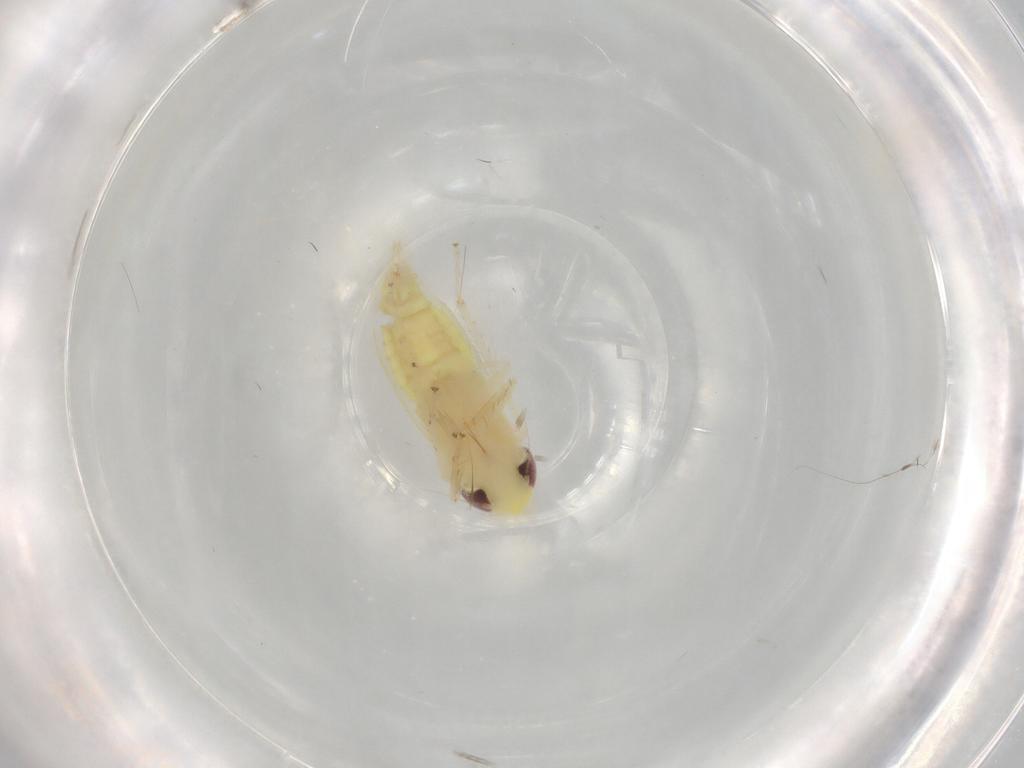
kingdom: Animalia
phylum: Arthropoda
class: Insecta
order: Hemiptera
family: Aphididae
